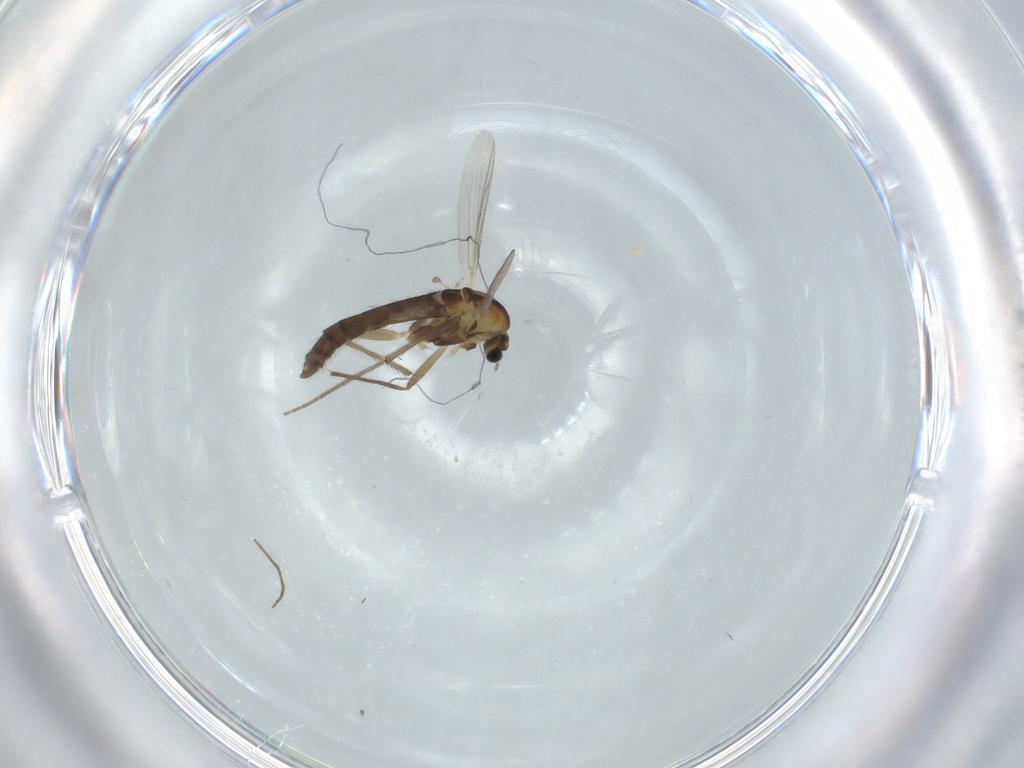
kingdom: Animalia
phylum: Arthropoda
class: Insecta
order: Diptera
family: Chironomidae
